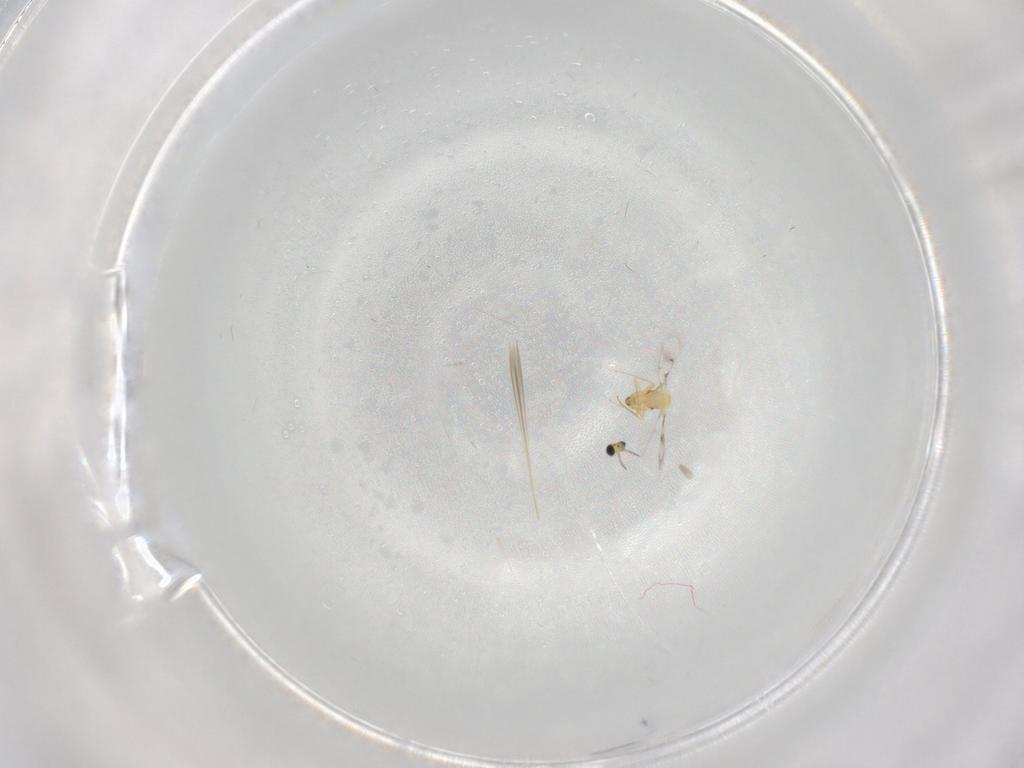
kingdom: Animalia
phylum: Arthropoda
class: Insecta
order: Hymenoptera
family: Trichogrammatidae
